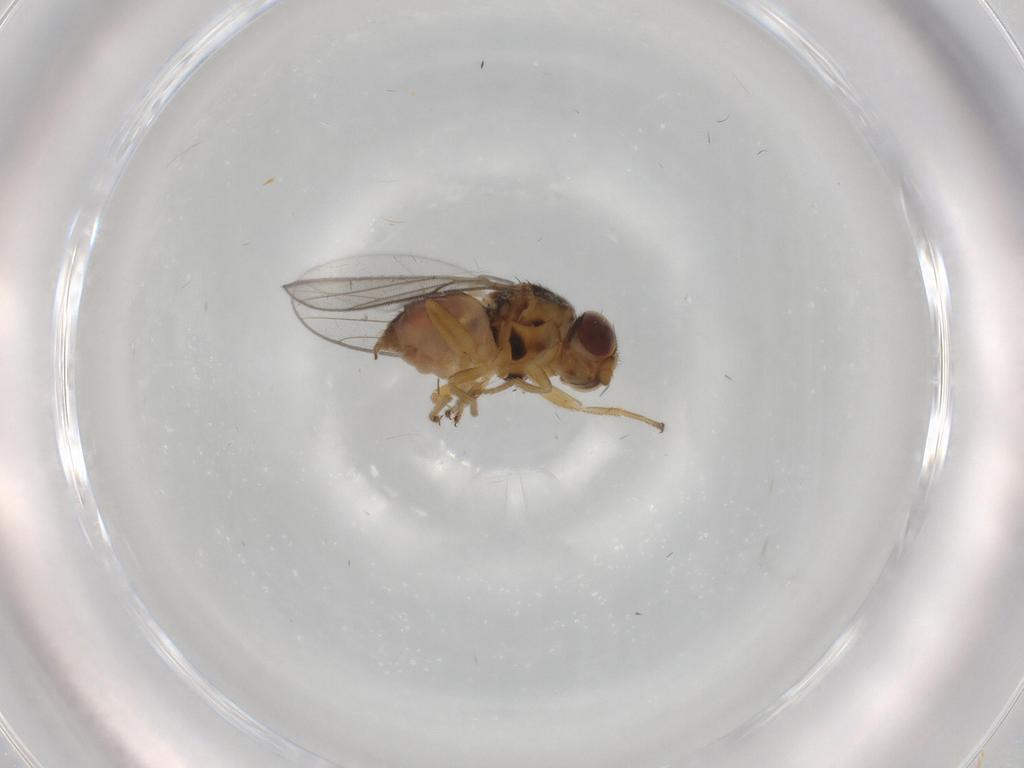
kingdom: Animalia
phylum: Arthropoda
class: Insecta
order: Diptera
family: Chloropidae
